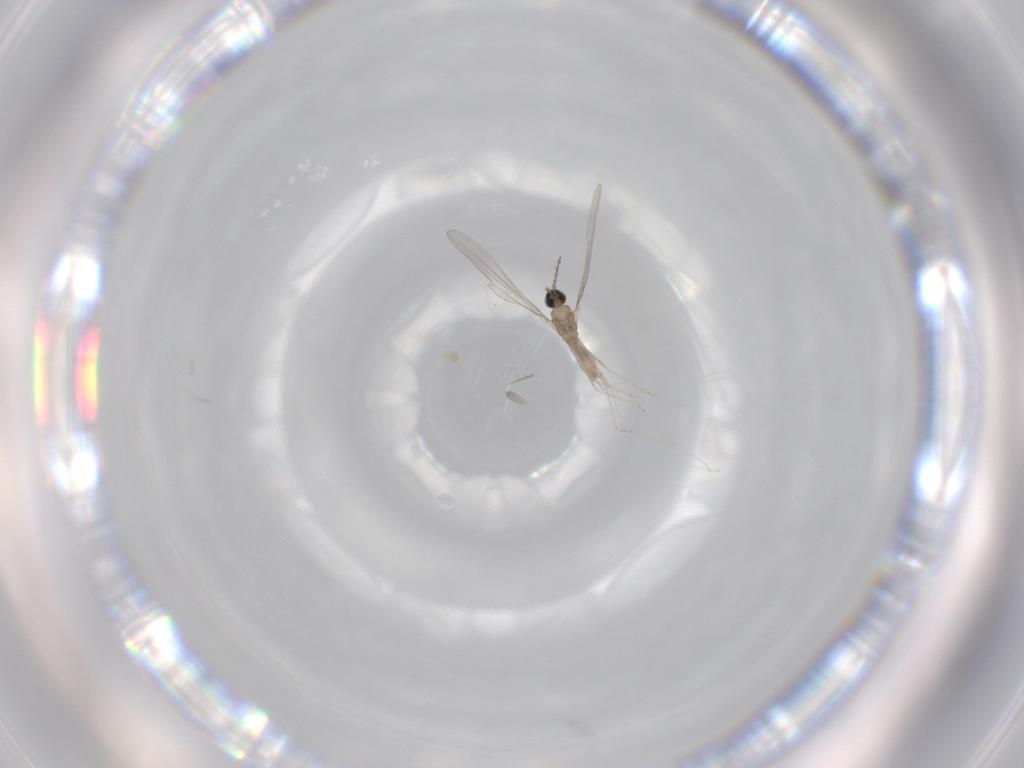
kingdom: Animalia
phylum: Arthropoda
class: Insecta
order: Diptera
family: Cecidomyiidae
